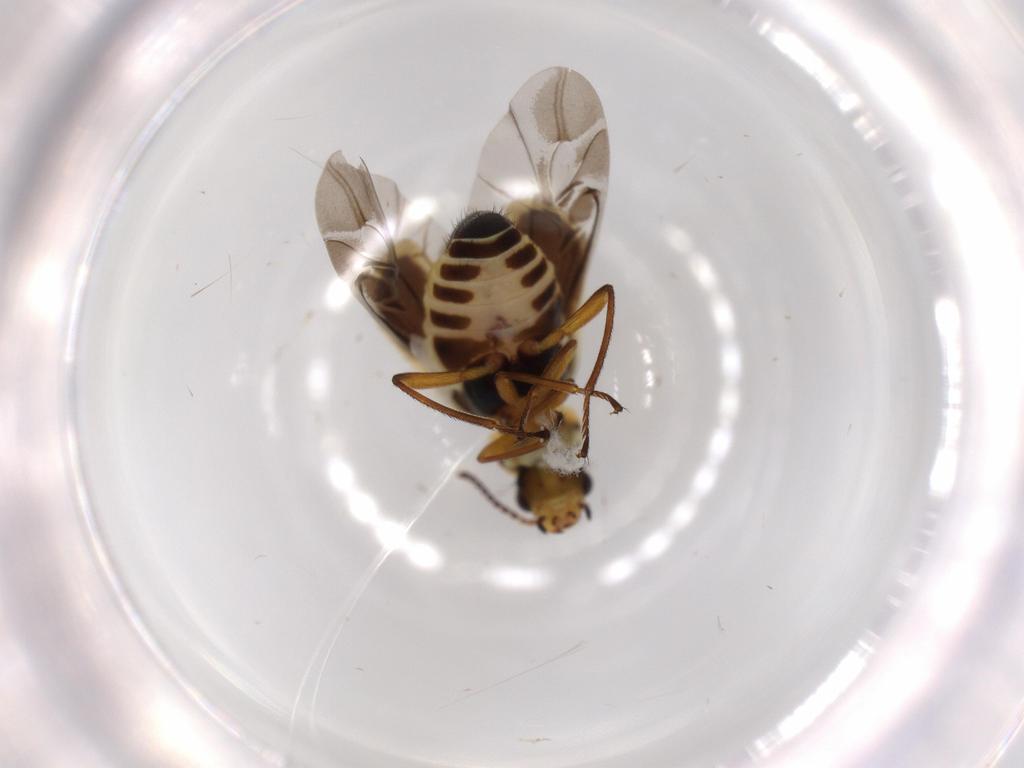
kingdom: Animalia
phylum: Arthropoda
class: Insecta
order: Coleoptera
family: Melyridae
